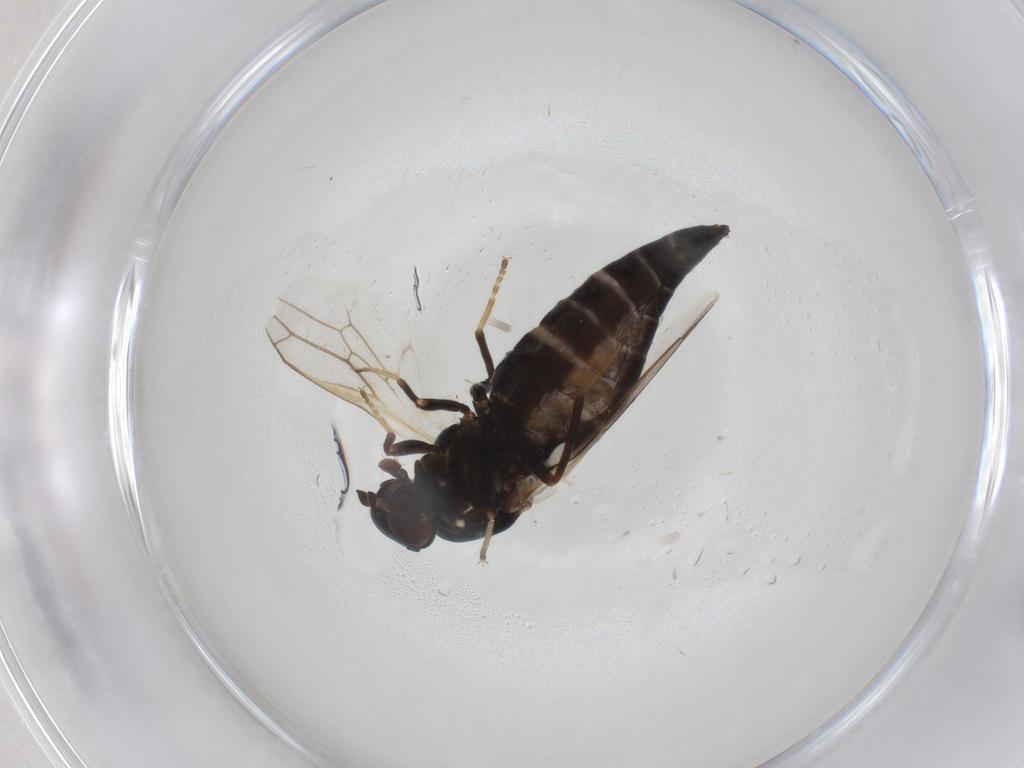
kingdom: Animalia
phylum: Arthropoda
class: Insecta
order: Diptera
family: Scenopinidae
